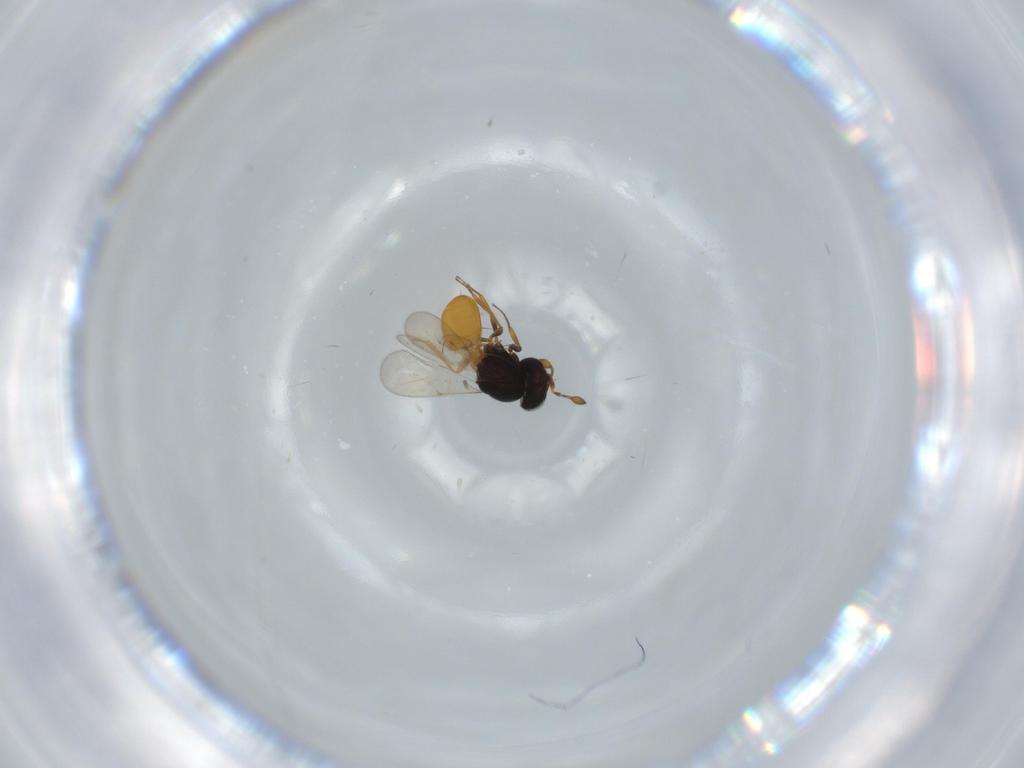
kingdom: Animalia
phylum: Arthropoda
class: Insecta
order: Hymenoptera
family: Scelionidae
